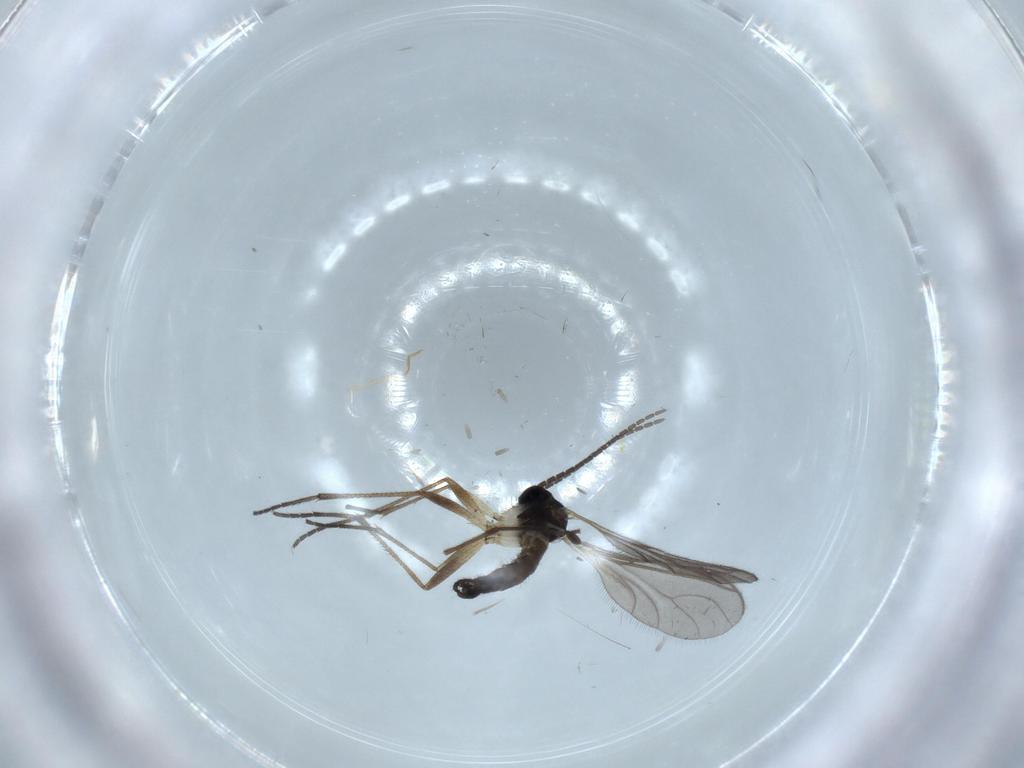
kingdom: Animalia
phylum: Arthropoda
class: Insecta
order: Diptera
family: Sciaridae
